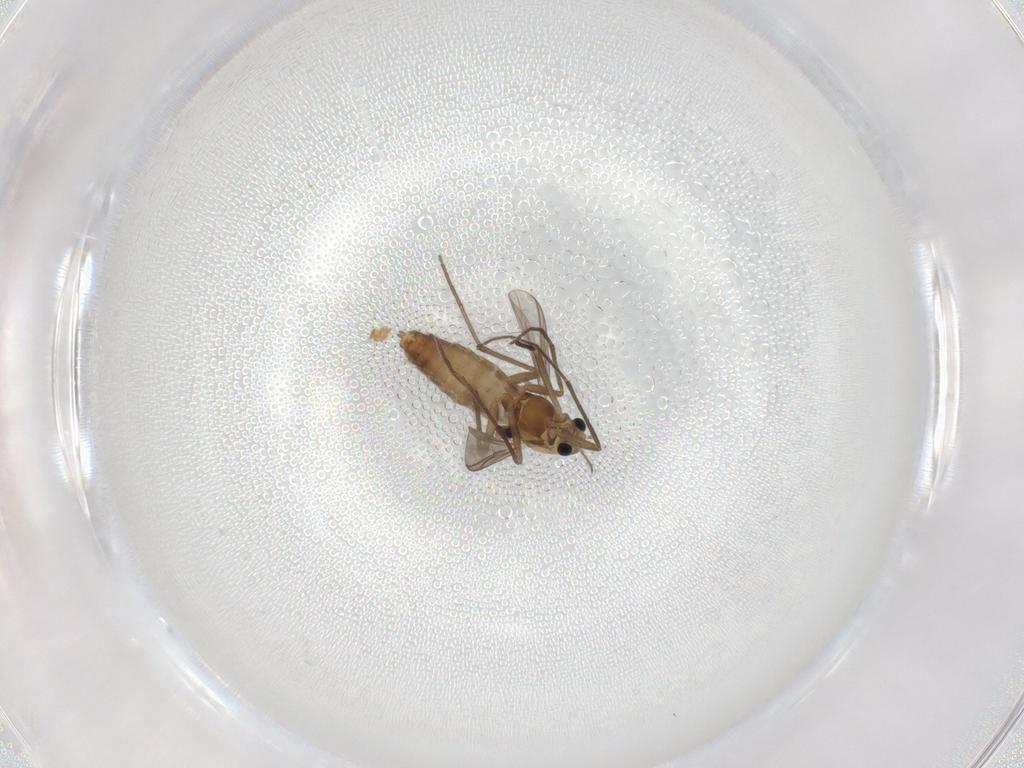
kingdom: Animalia
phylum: Arthropoda
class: Insecta
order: Diptera
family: Chironomidae
